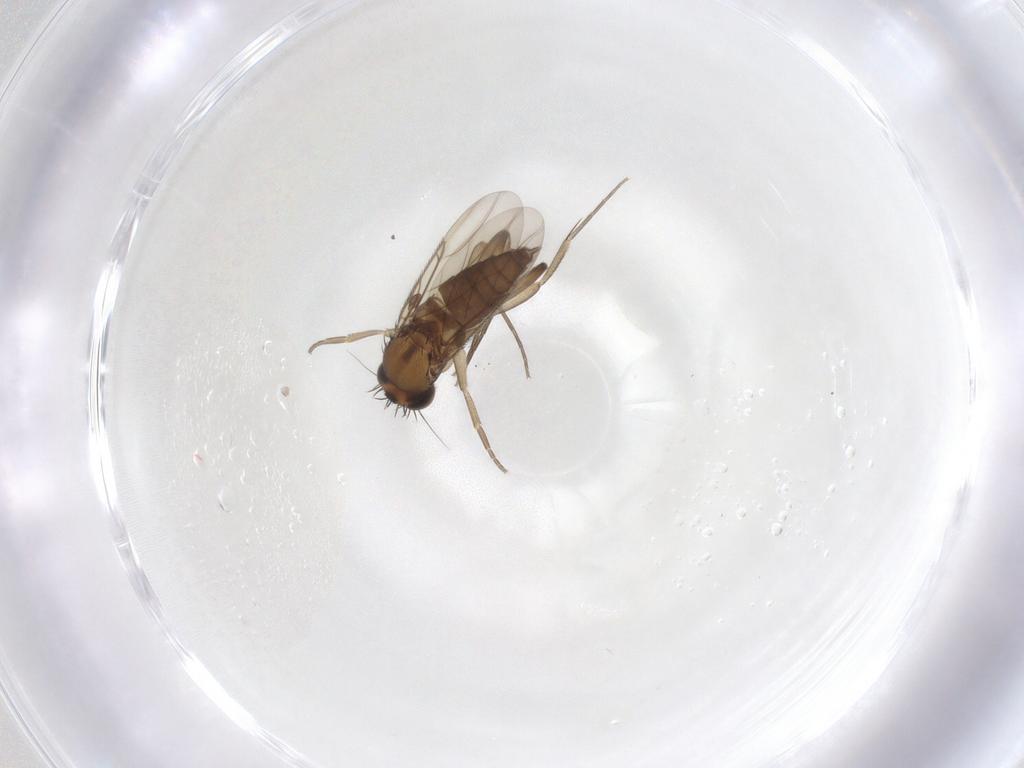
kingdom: Animalia
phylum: Arthropoda
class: Insecta
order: Diptera
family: Phoridae
